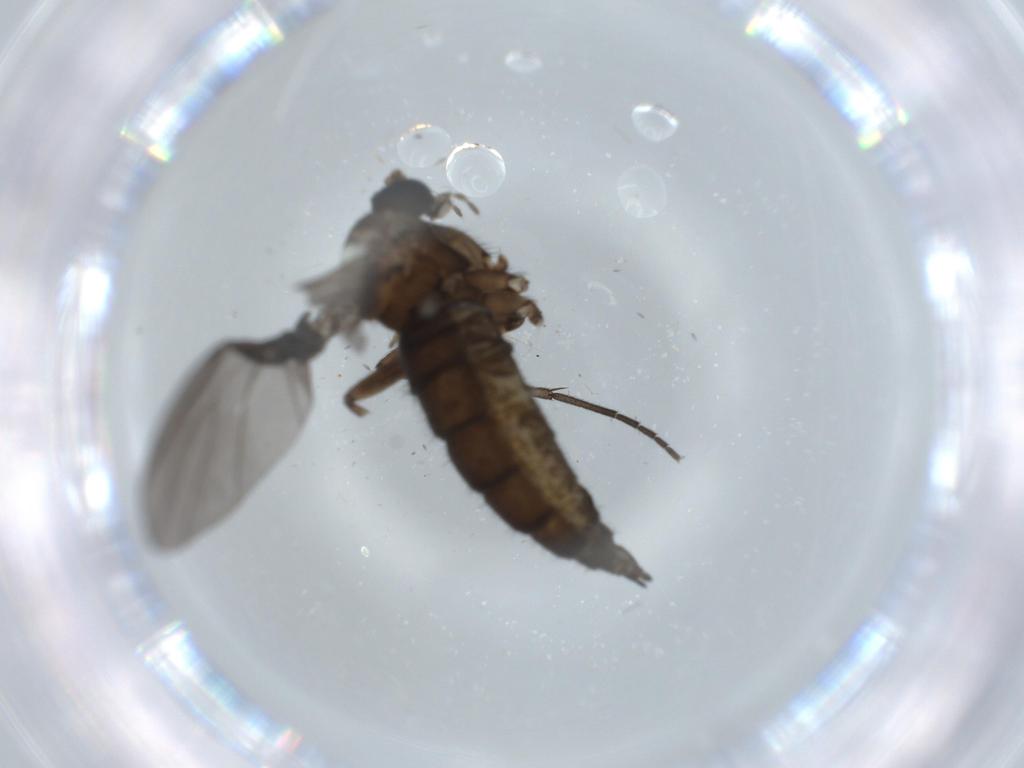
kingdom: Animalia
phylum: Arthropoda
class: Insecta
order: Diptera
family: Sciaridae
